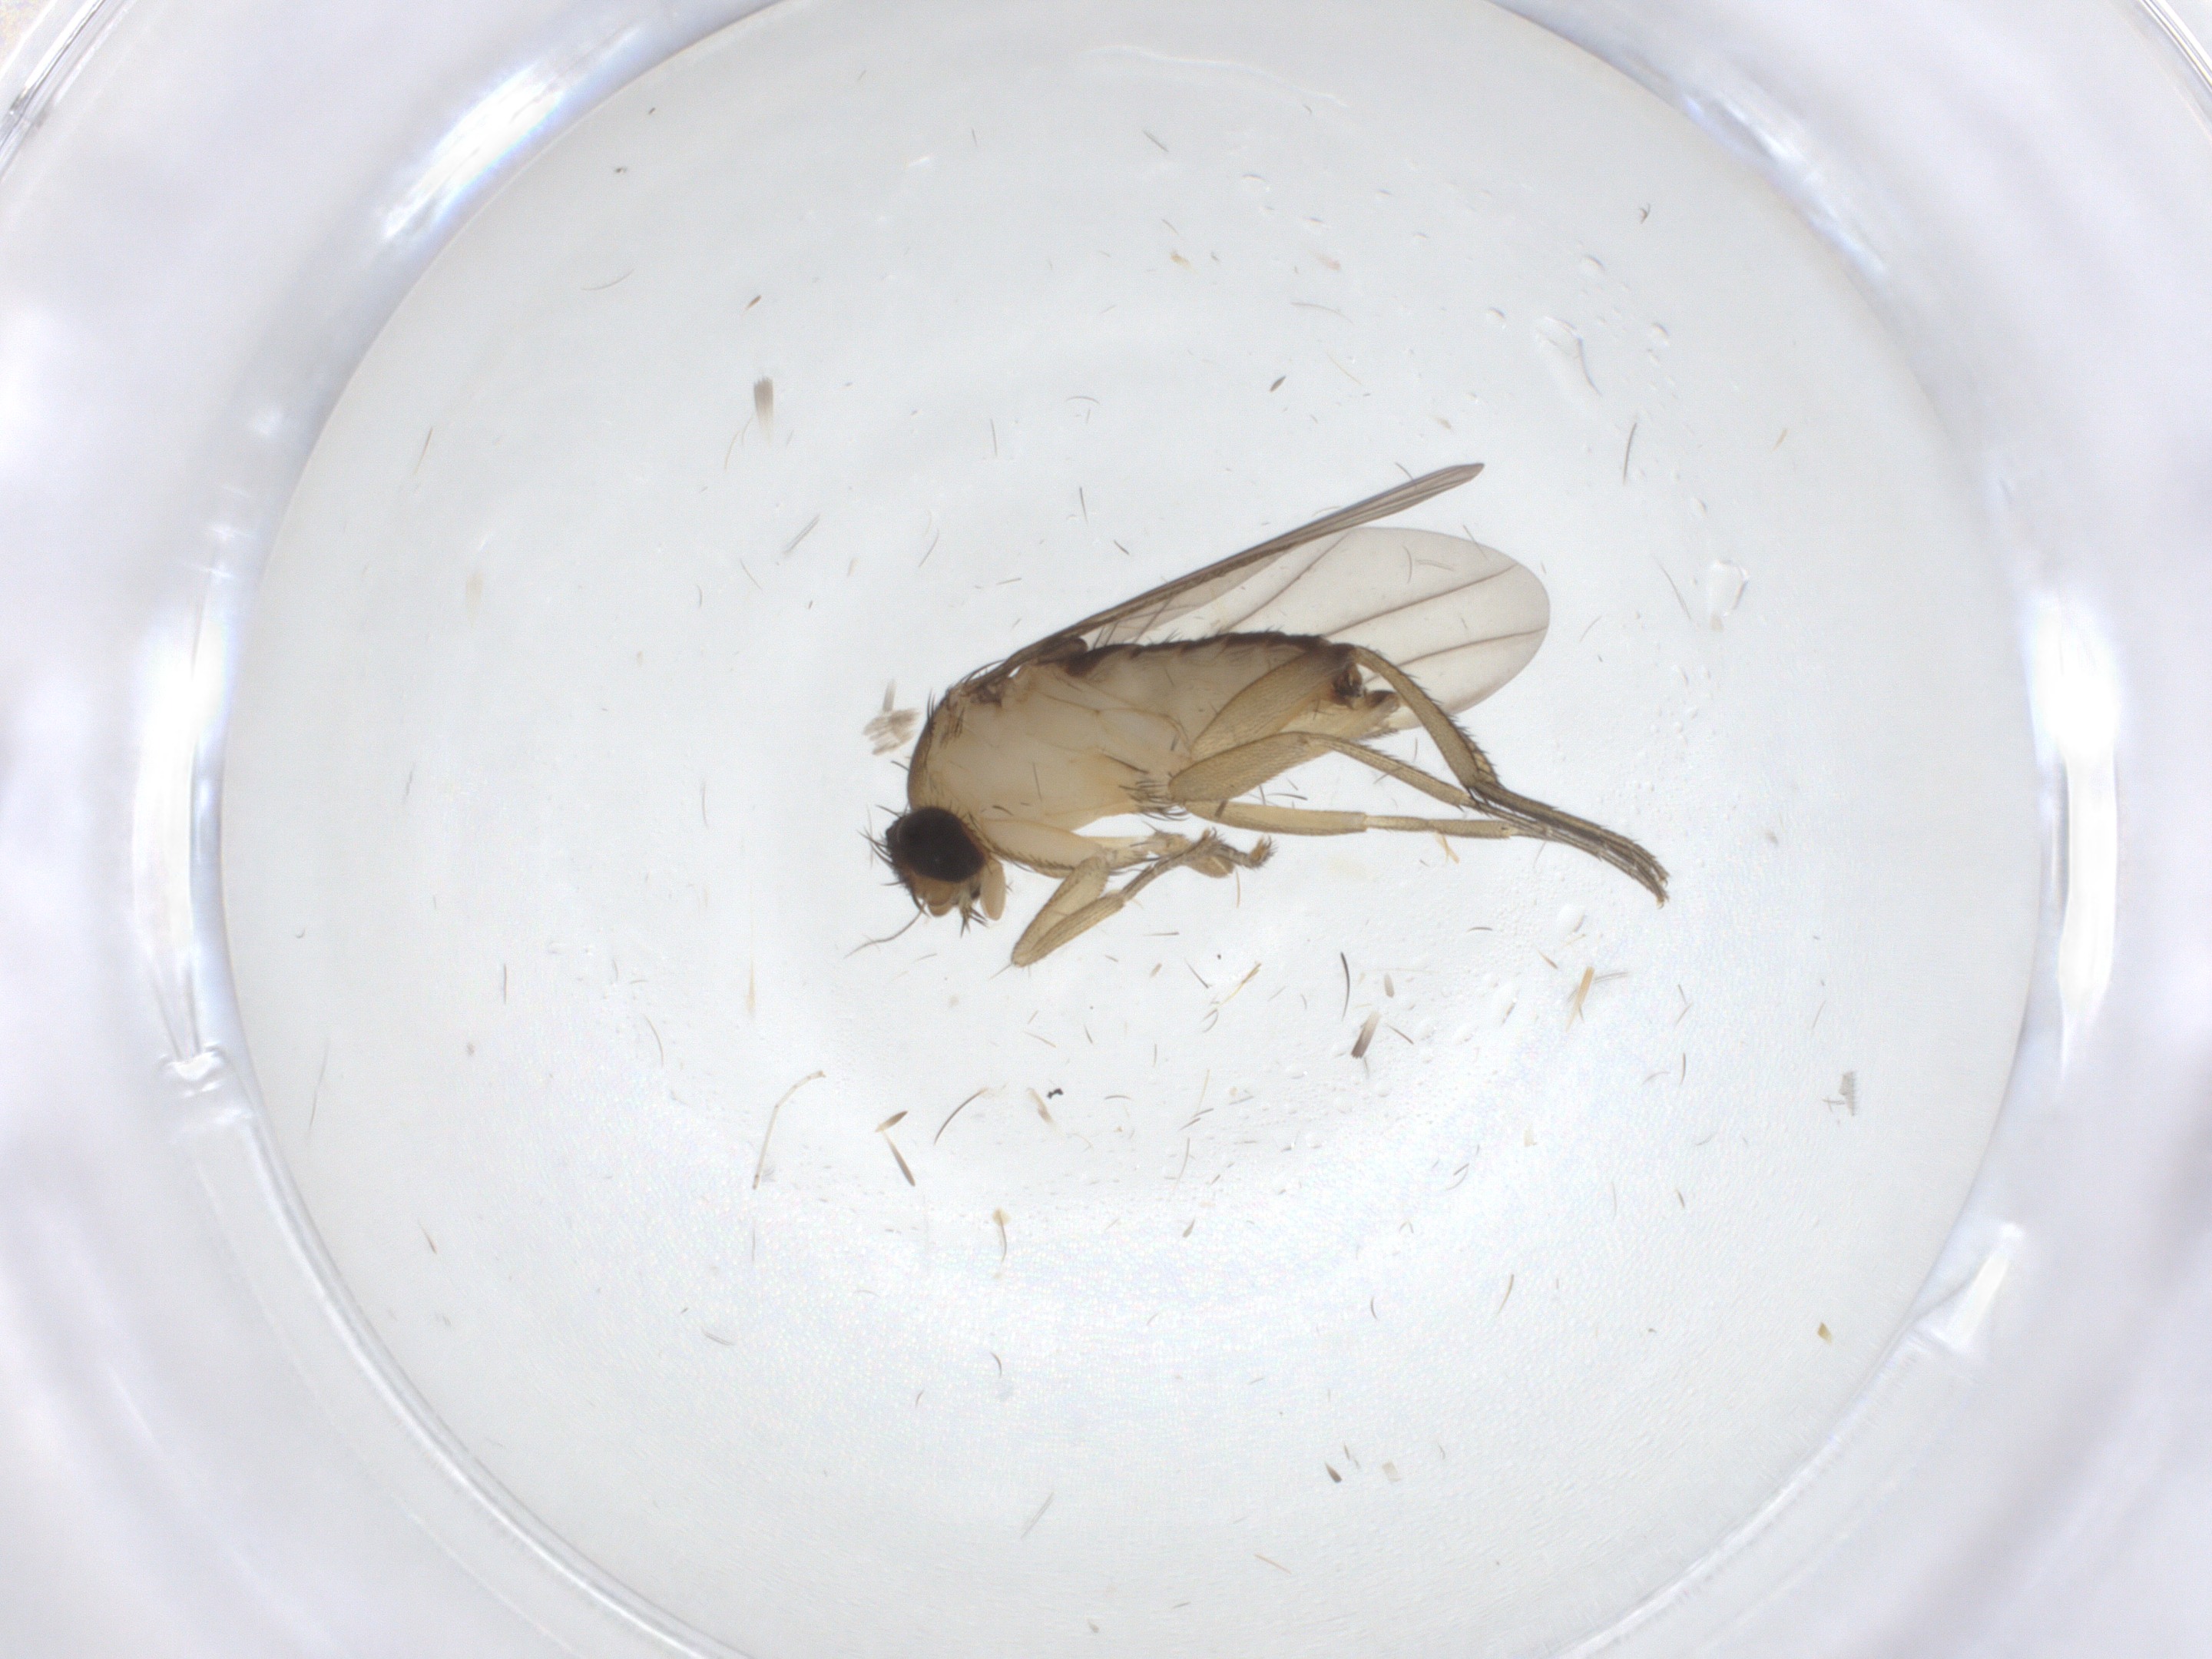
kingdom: Animalia
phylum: Arthropoda
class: Insecta
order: Diptera
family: Phoridae
